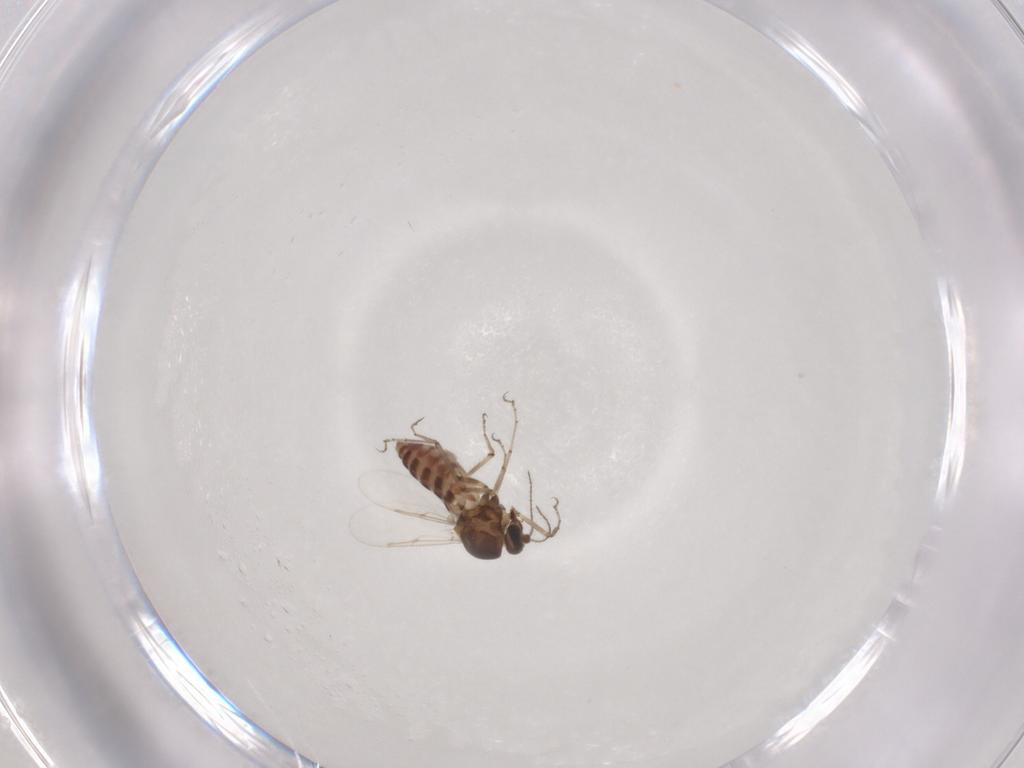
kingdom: Animalia
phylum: Arthropoda
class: Insecta
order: Diptera
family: Ceratopogonidae
